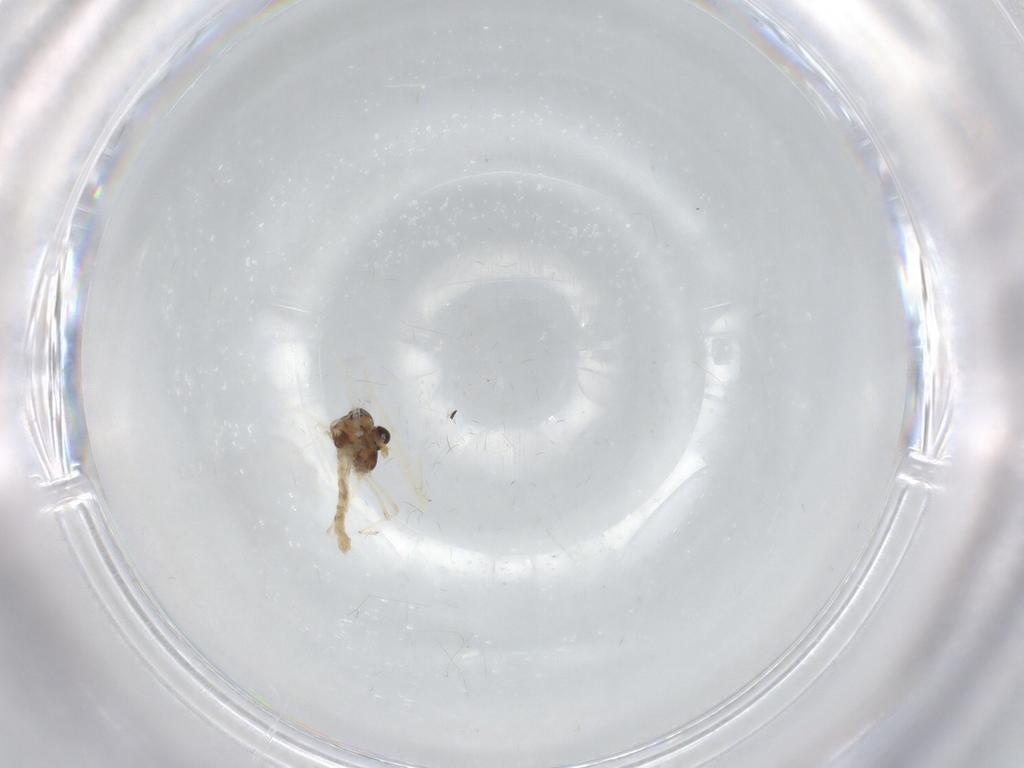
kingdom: Animalia
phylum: Arthropoda
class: Insecta
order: Diptera
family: Chironomidae
